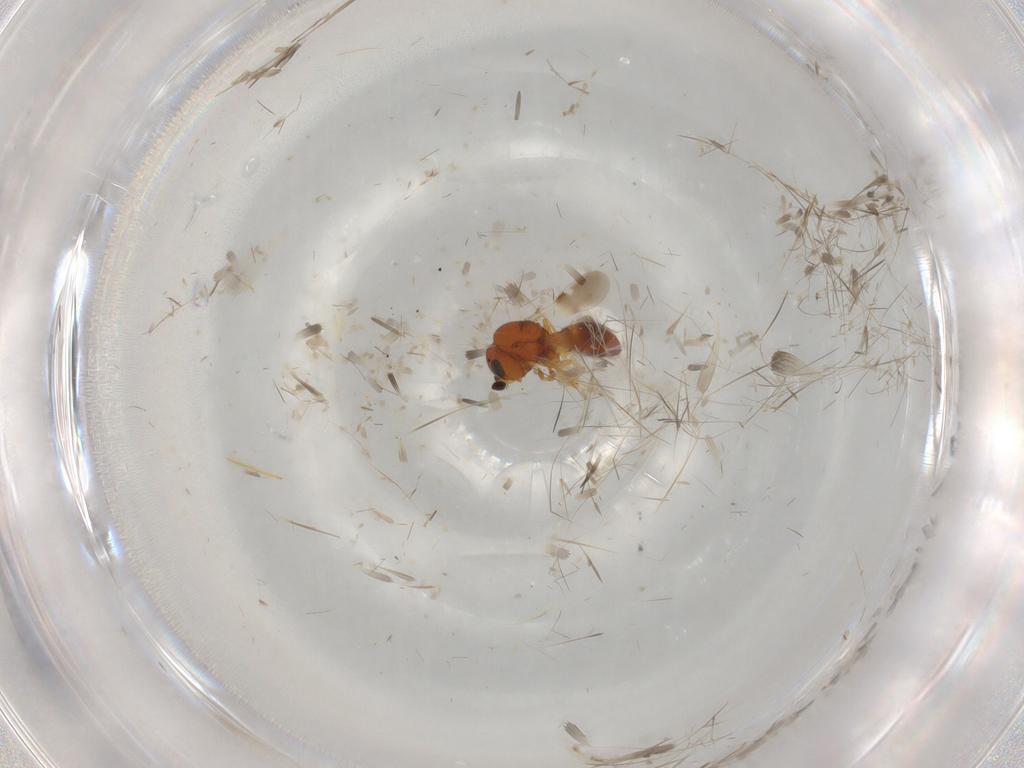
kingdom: Animalia
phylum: Arthropoda
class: Insecta
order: Hymenoptera
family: Scelionidae
